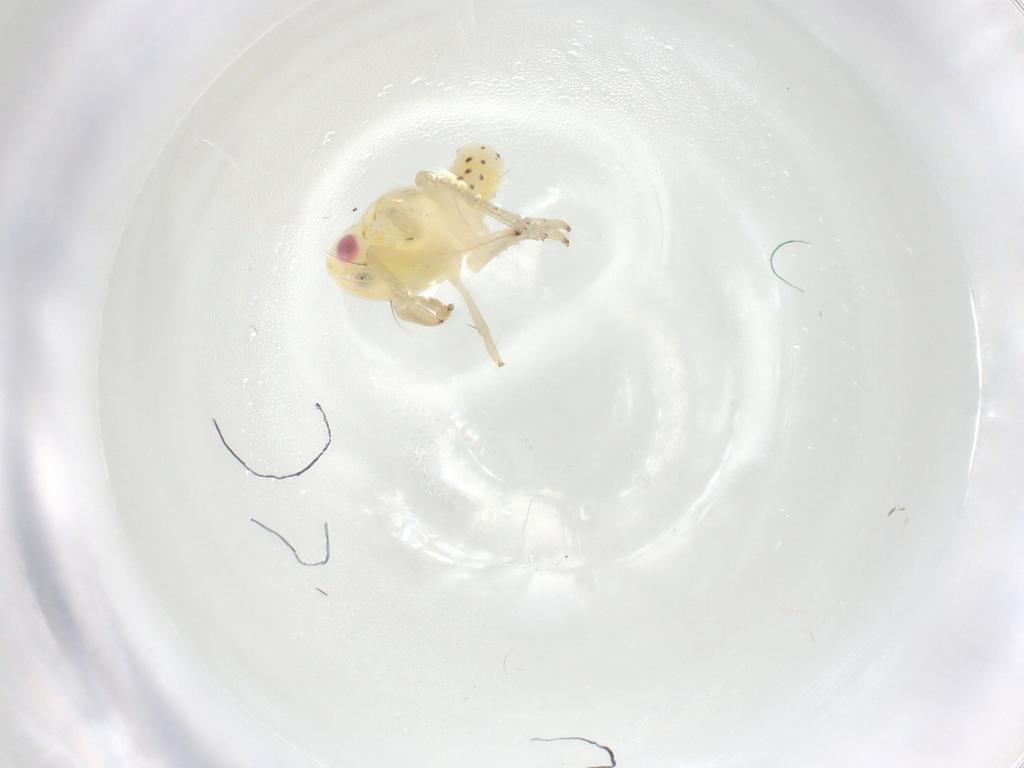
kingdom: Animalia
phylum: Arthropoda
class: Insecta
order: Hemiptera
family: Tropiduchidae
